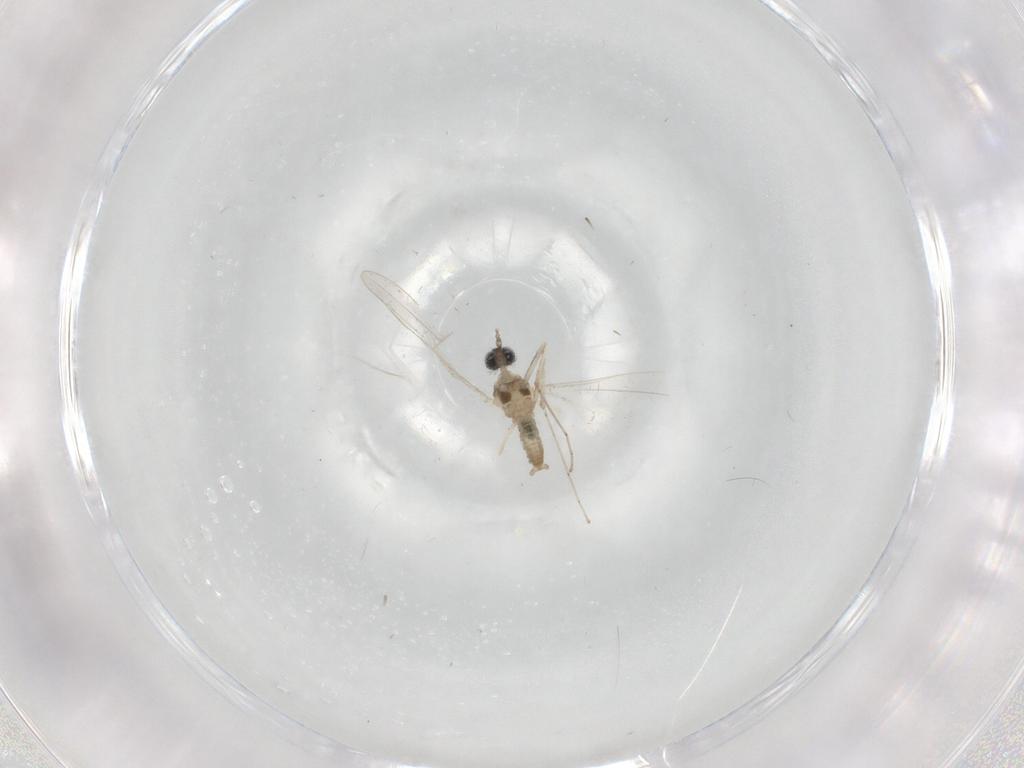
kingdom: Animalia
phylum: Arthropoda
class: Insecta
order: Diptera
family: Cecidomyiidae
